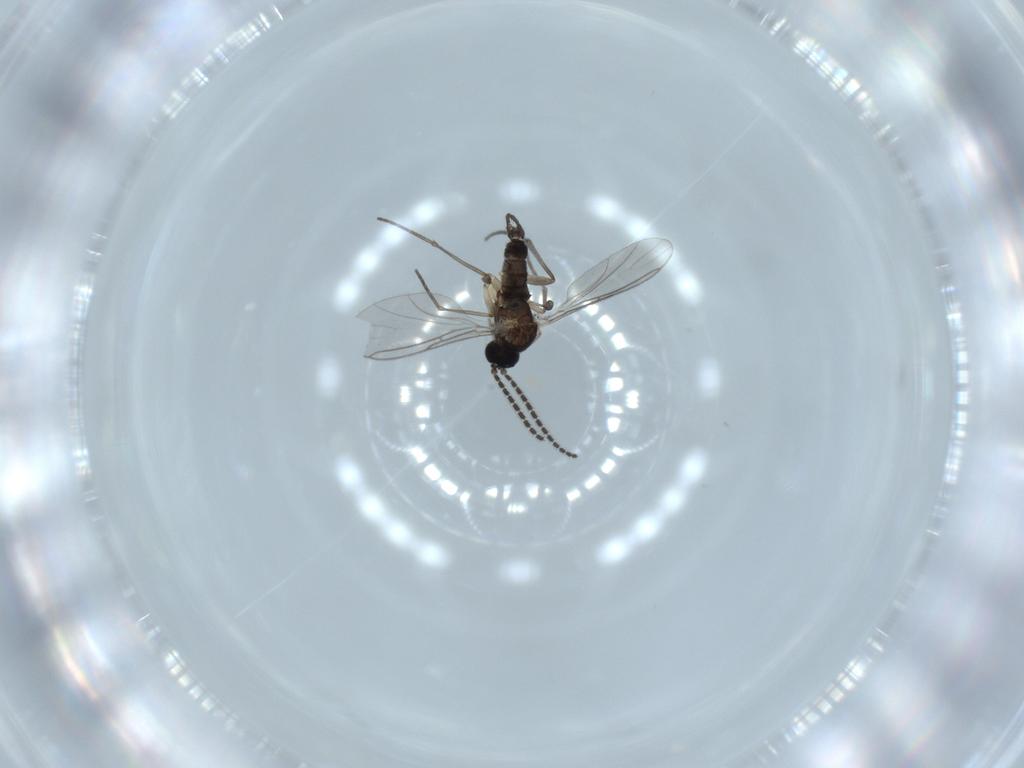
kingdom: Animalia
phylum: Arthropoda
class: Insecta
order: Diptera
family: Sciaridae
